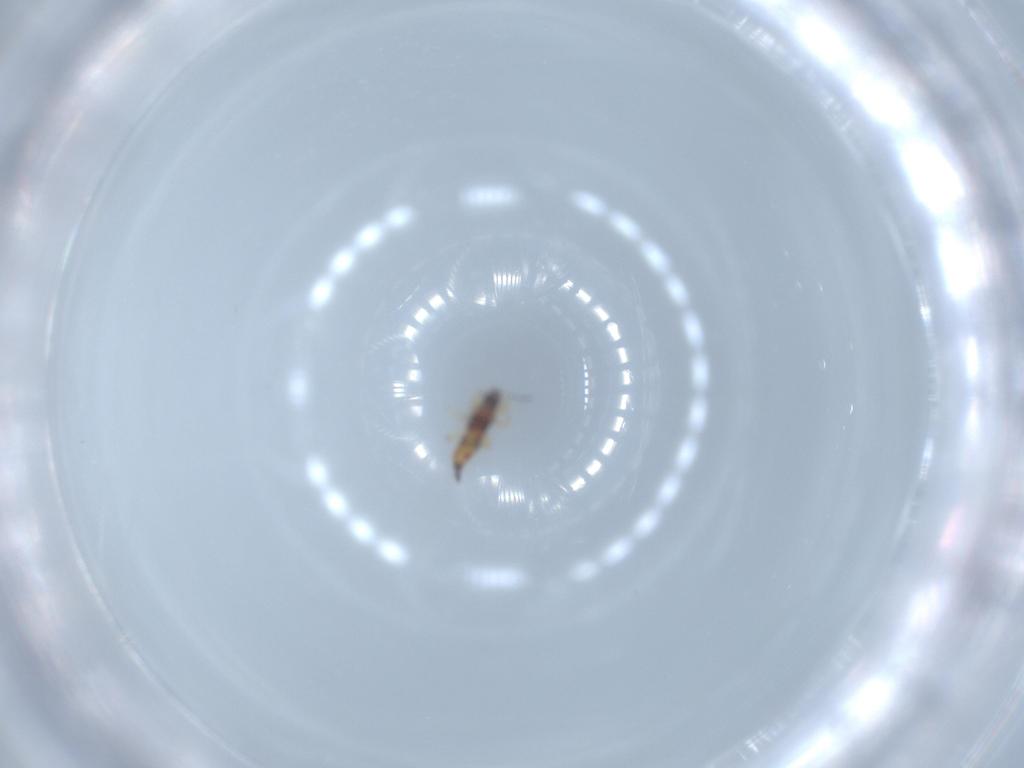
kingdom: Animalia
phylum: Arthropoda
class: Insecta
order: Thysanoptera
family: Phlaeothripidae
